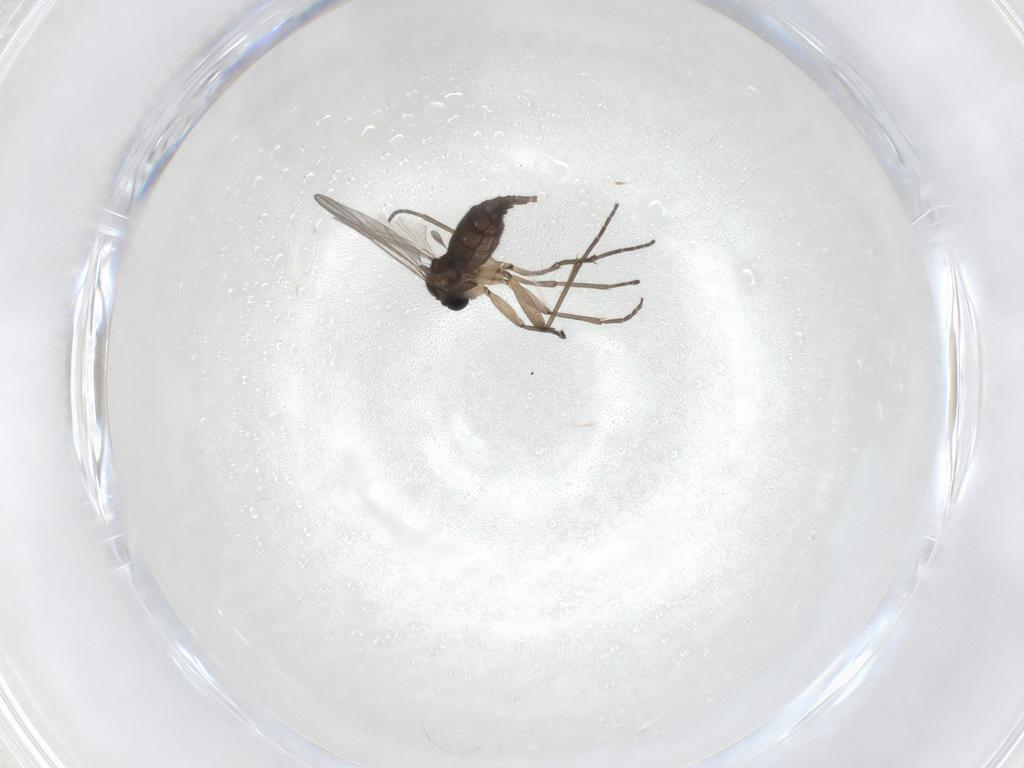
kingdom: Animalia
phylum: Arthropoda
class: Insecta
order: Diptera
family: Sciaridae
